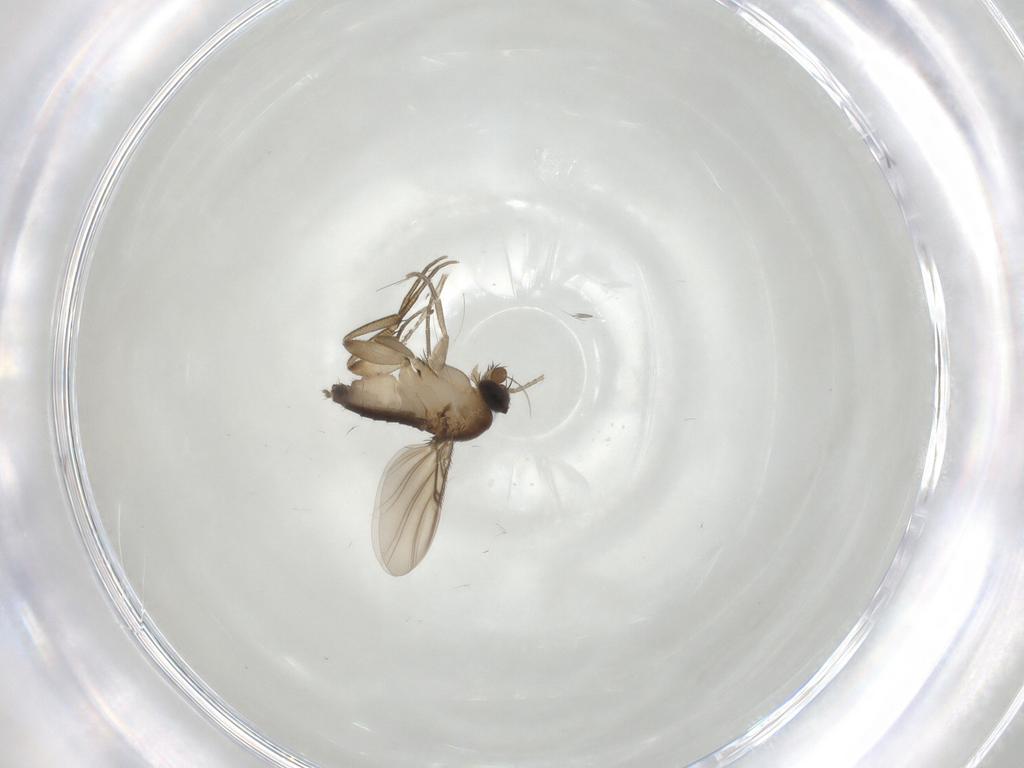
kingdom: Animalia
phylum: Arthropoda
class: Insecta
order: Diptera
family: Phoridae
